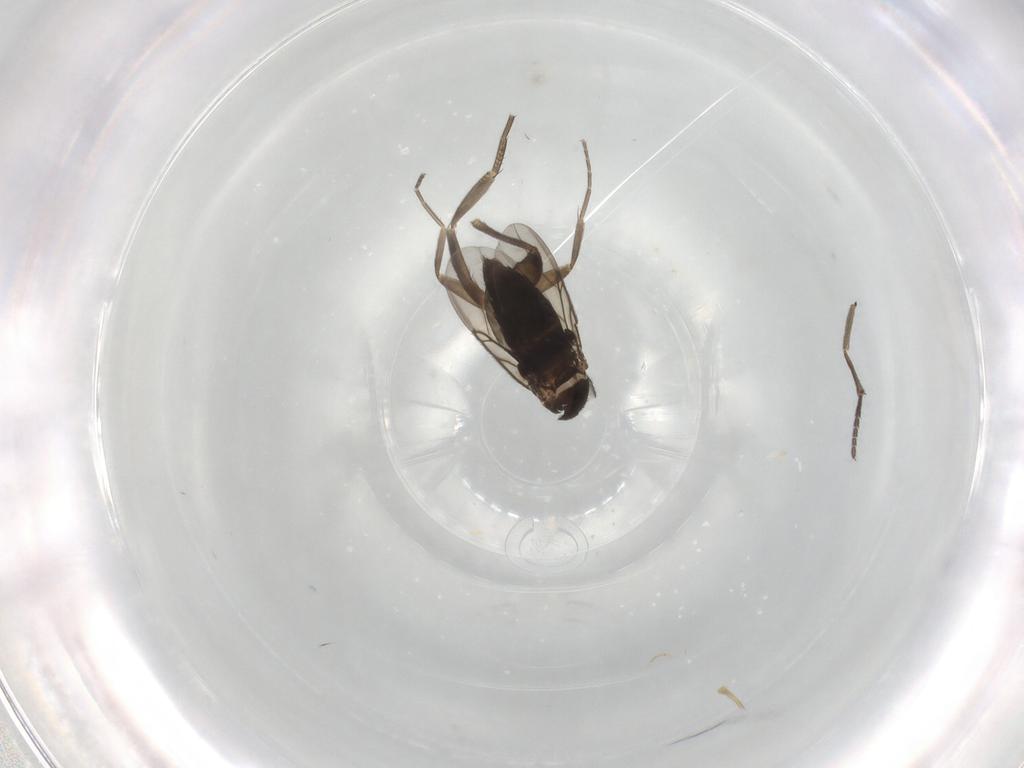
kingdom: Animalia
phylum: Arthropoda
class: Insecta
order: Diptera
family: Phoridae
